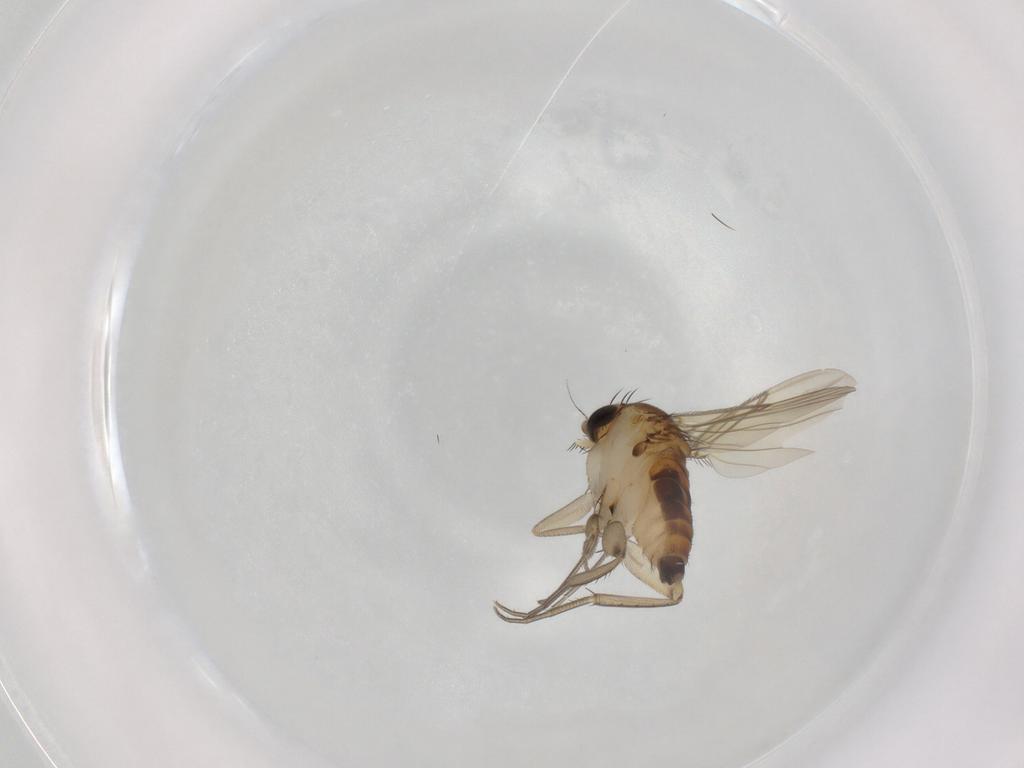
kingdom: Animalia
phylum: Arthropoda
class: Insecta
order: Diptera
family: Phoridae
